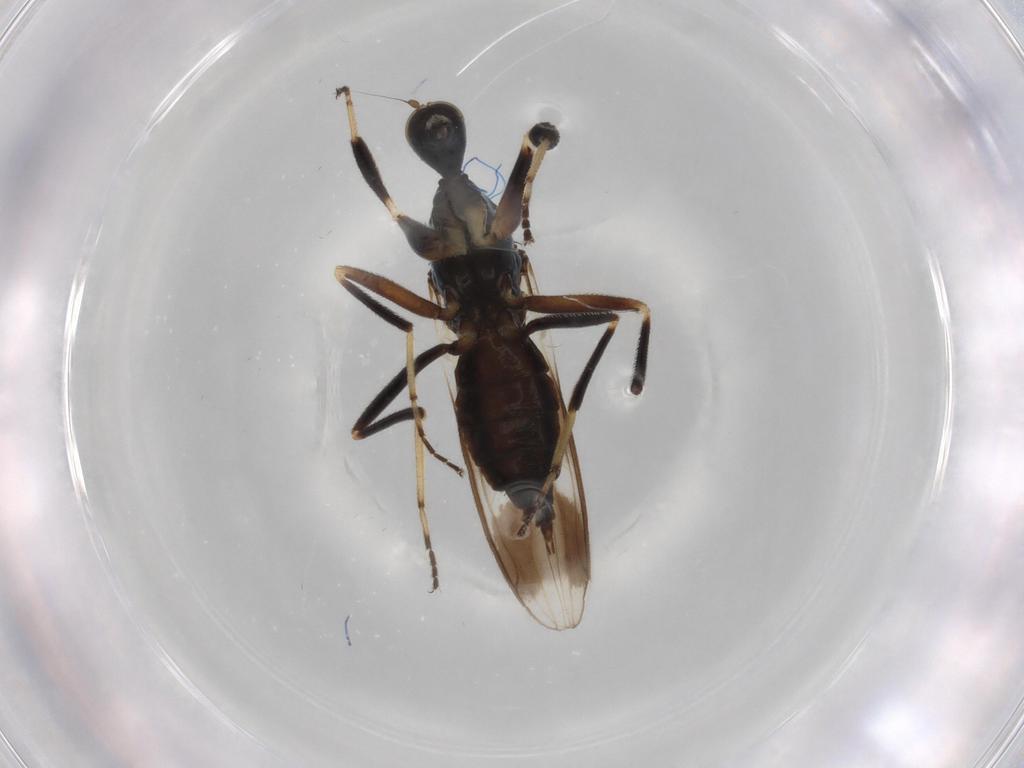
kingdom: Animalia
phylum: Arthropoda
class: Insecta
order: Diptera
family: Hybotidae
